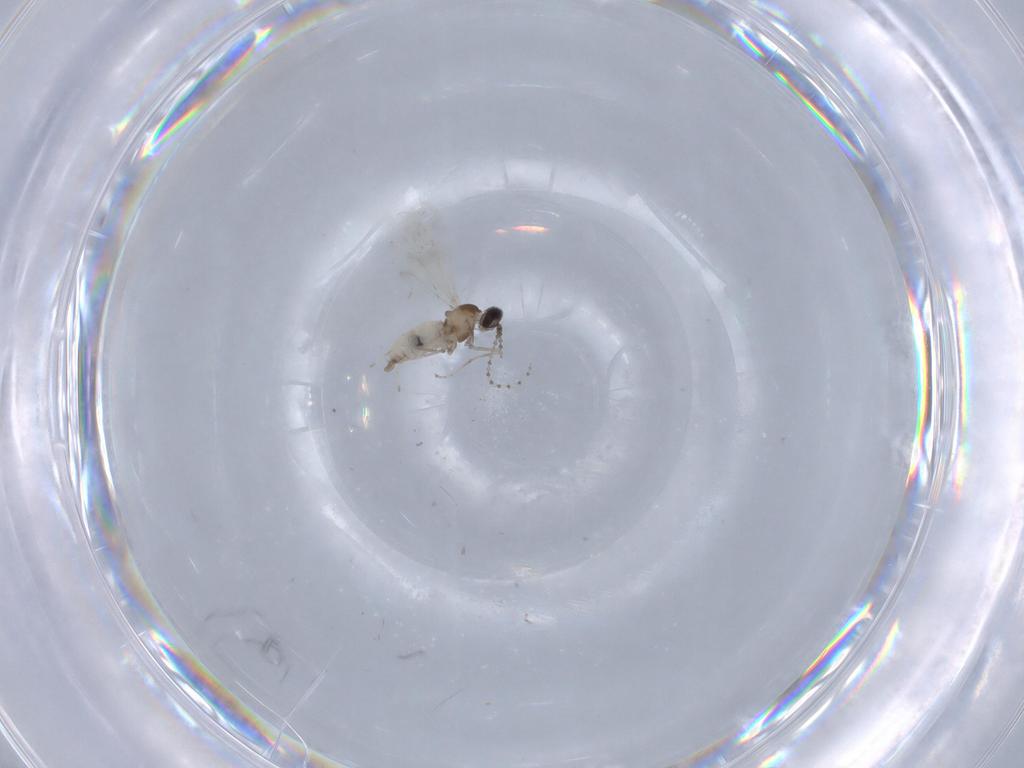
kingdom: Animalia
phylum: Arthropoda
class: Insecta
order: Diptera
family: Cecidomyiidae
